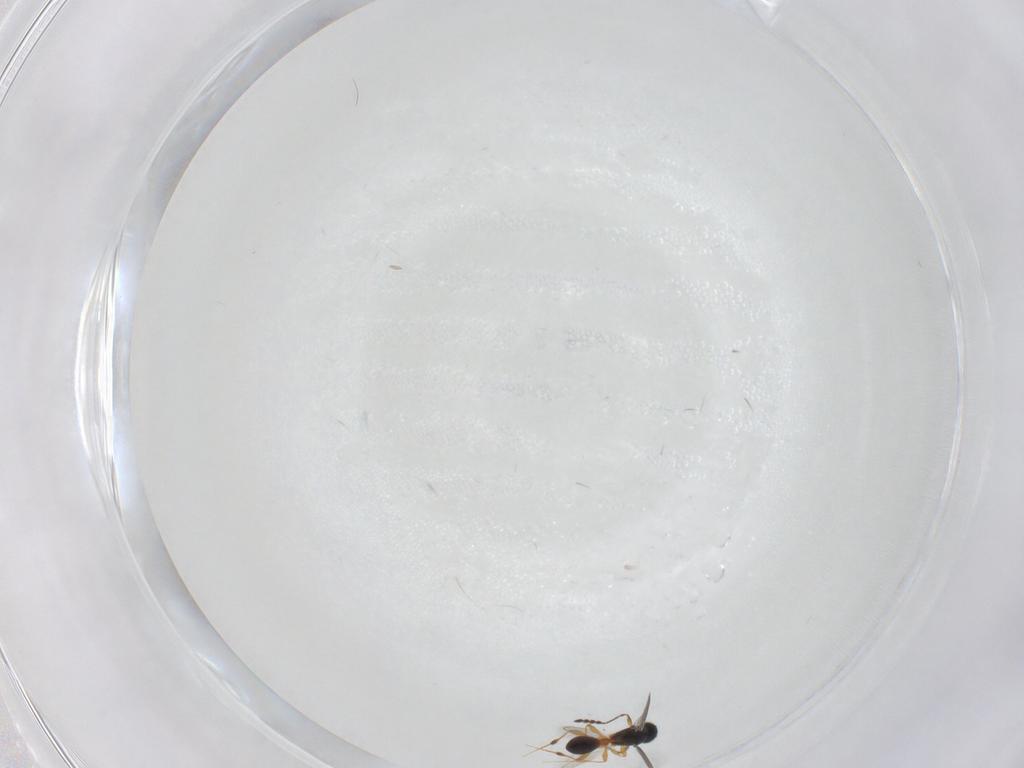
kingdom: Animalia
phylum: Arthropoda
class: Insecta
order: Hymenoptera
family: Platygastridae
